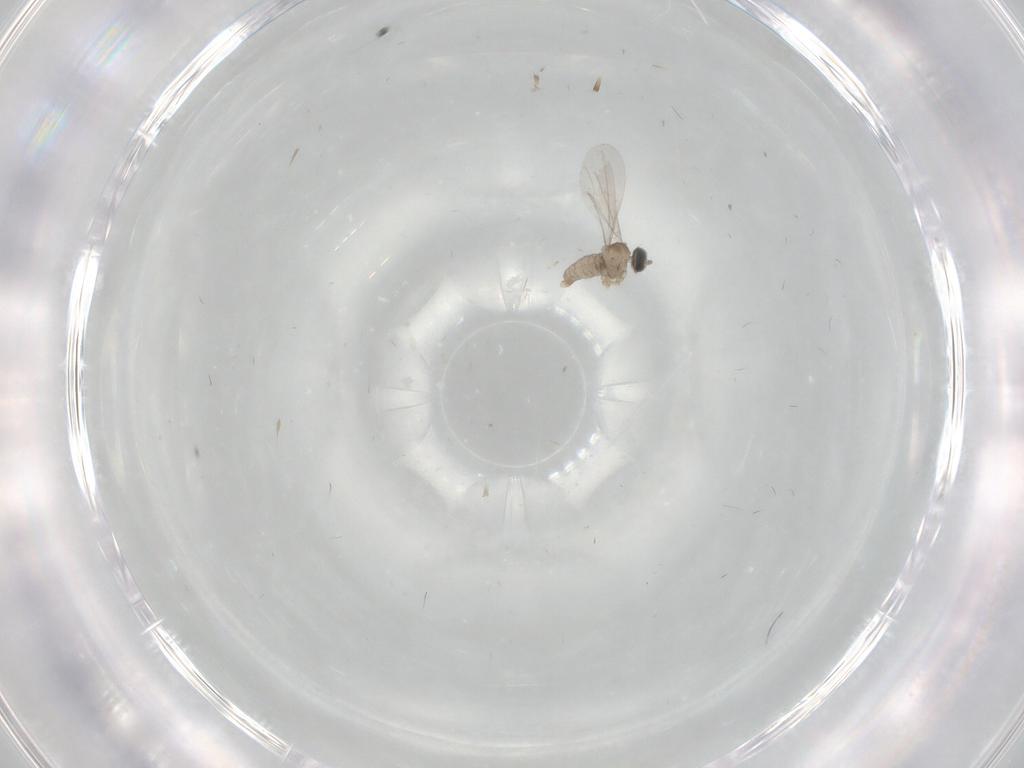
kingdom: Animalia
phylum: Arthropoda
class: Insecta
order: Diptera
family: Cecidomyiidae
